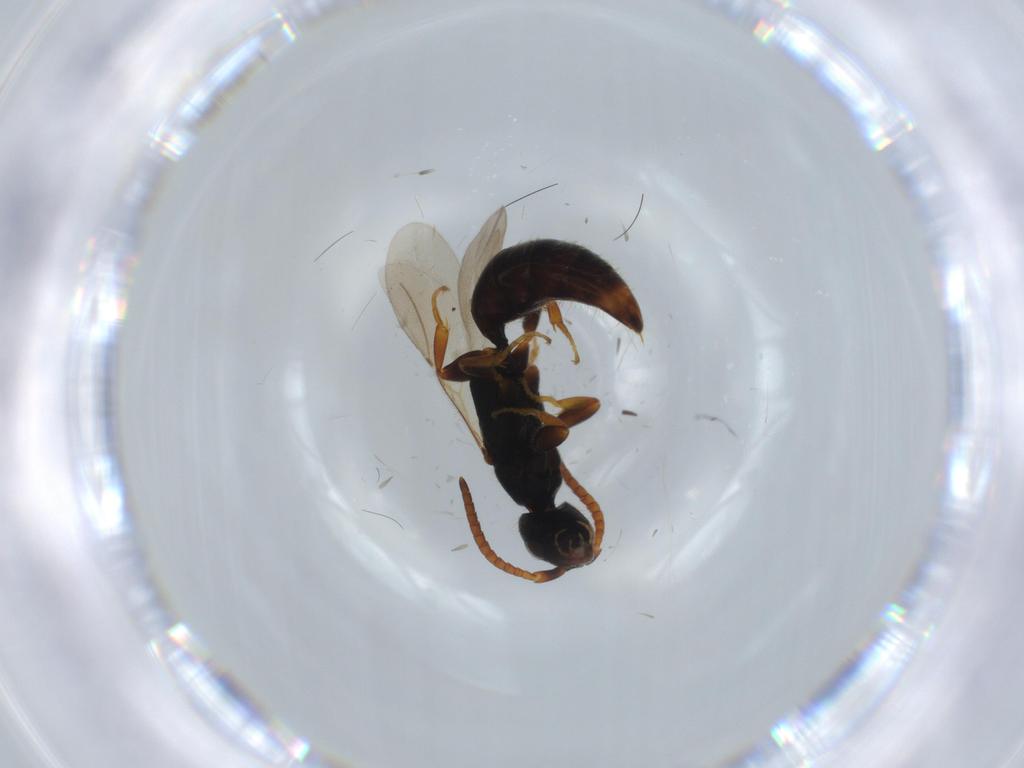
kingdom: Animalia
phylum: Arthropoda
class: Insecta
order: Hymenoptera
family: Bethylidae
